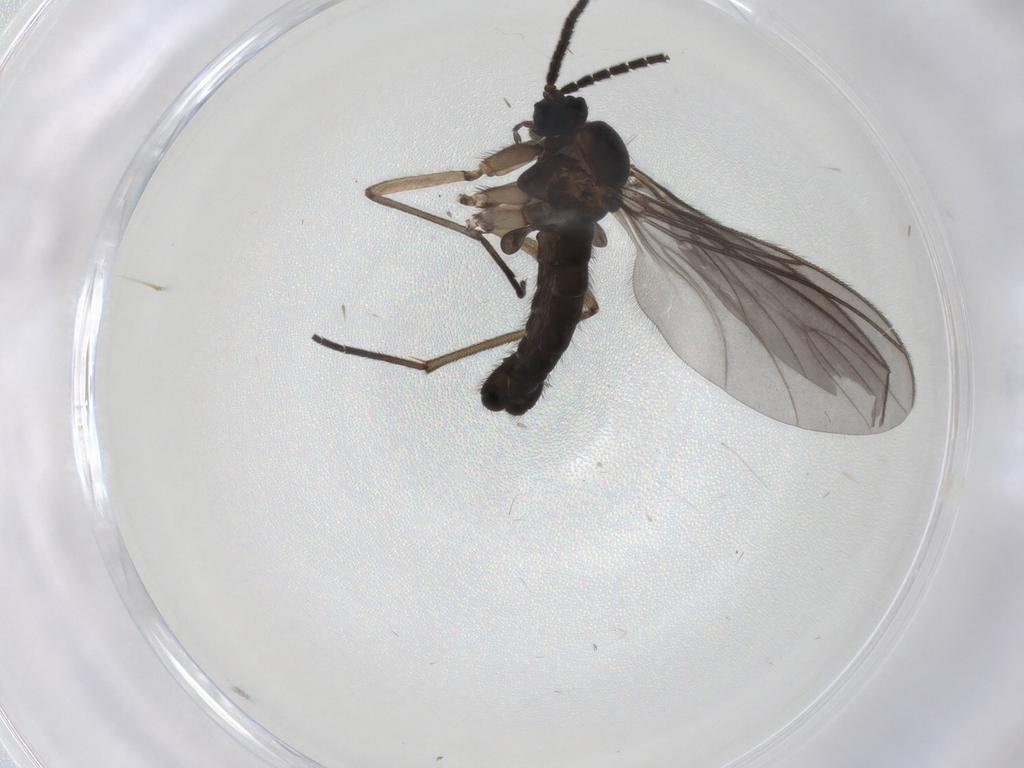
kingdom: Animalia
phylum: Arthropoda
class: Insecta
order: Diptera
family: Sciaridae
